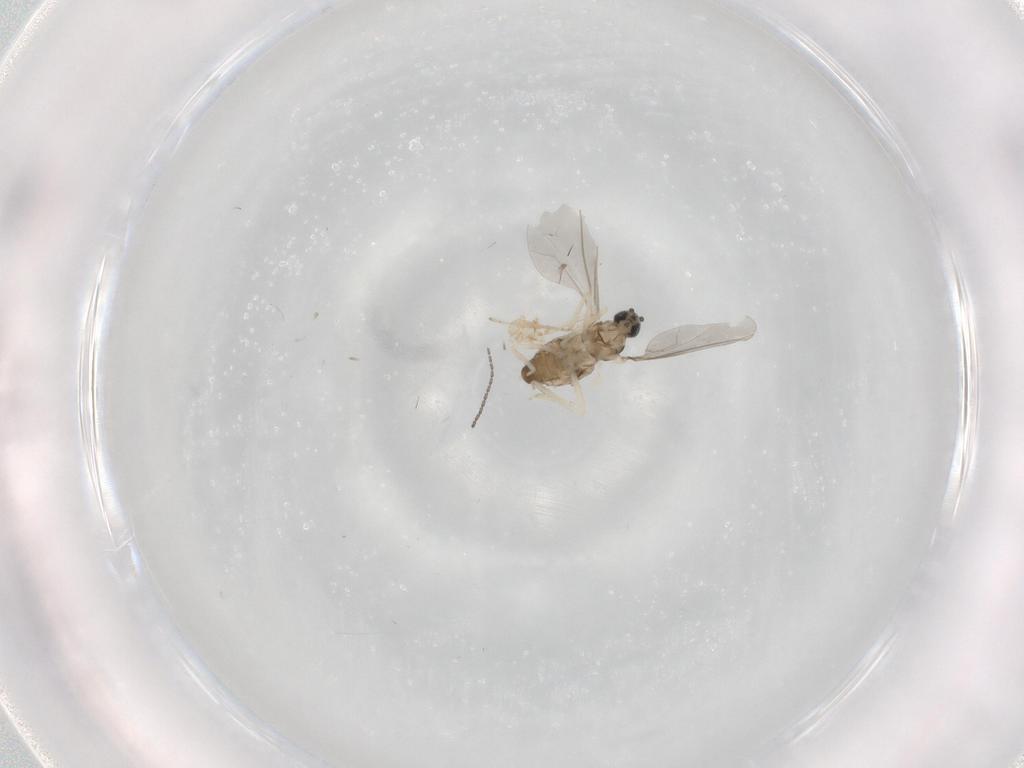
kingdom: Animalia
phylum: Arthropoda
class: Insecta
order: Diptera
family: Cecidomyiidae
